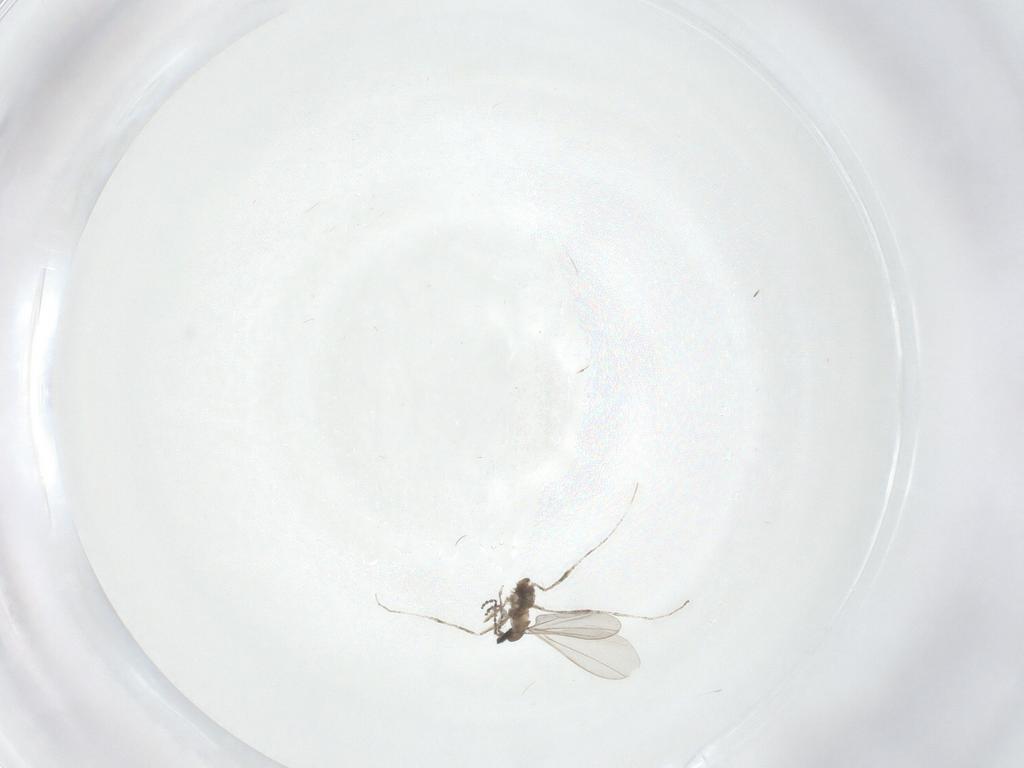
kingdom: Animalia
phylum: Arthropoda
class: Insecta
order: Diptera
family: Cecidomyiidae
